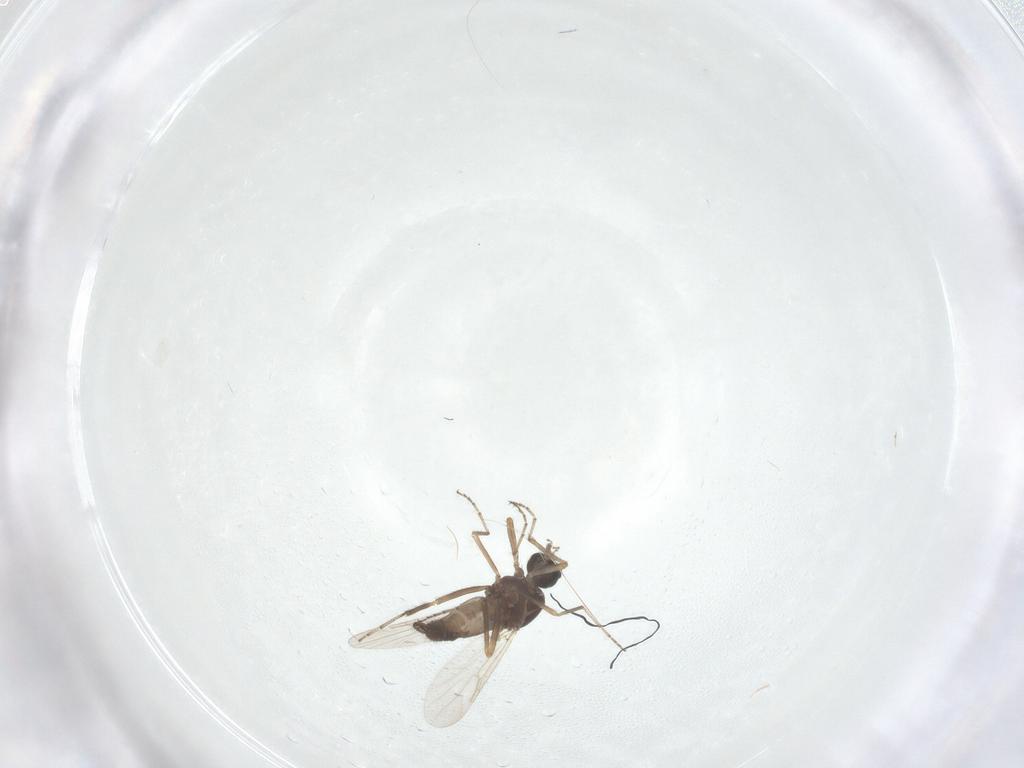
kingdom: Animalia
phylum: Arthropoda
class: Insecta
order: Diptera
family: Ceratopogonidae
